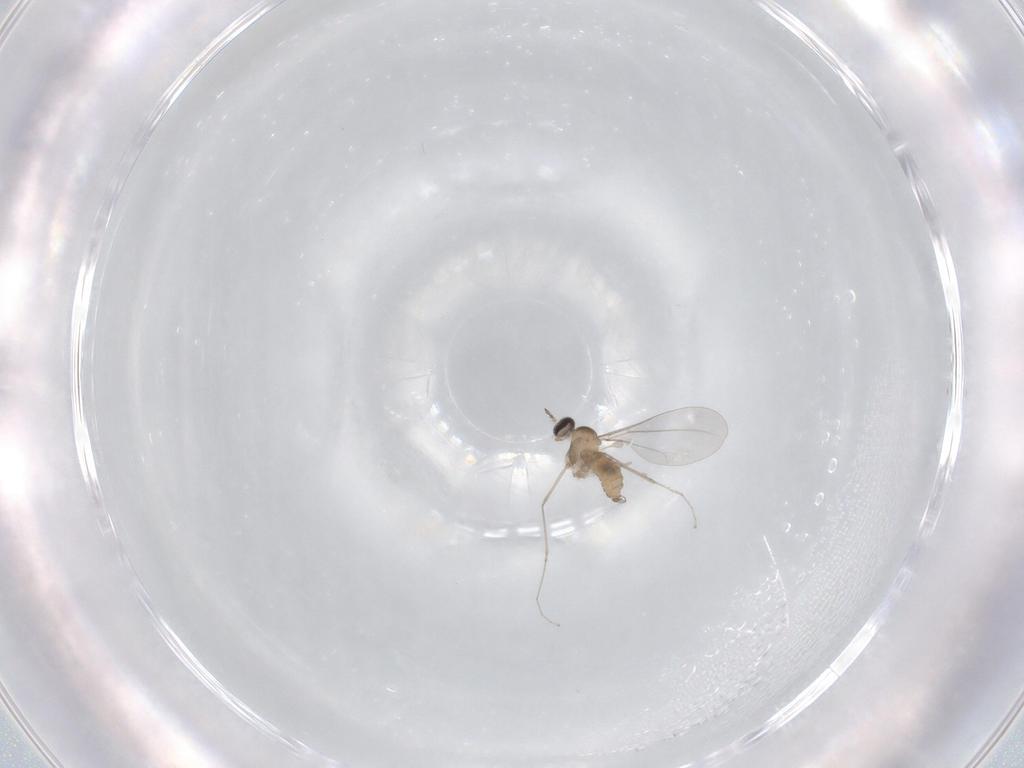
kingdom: Animalia
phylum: Arthropoda
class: Insecta
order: Diptera
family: Cecidomyiidae
